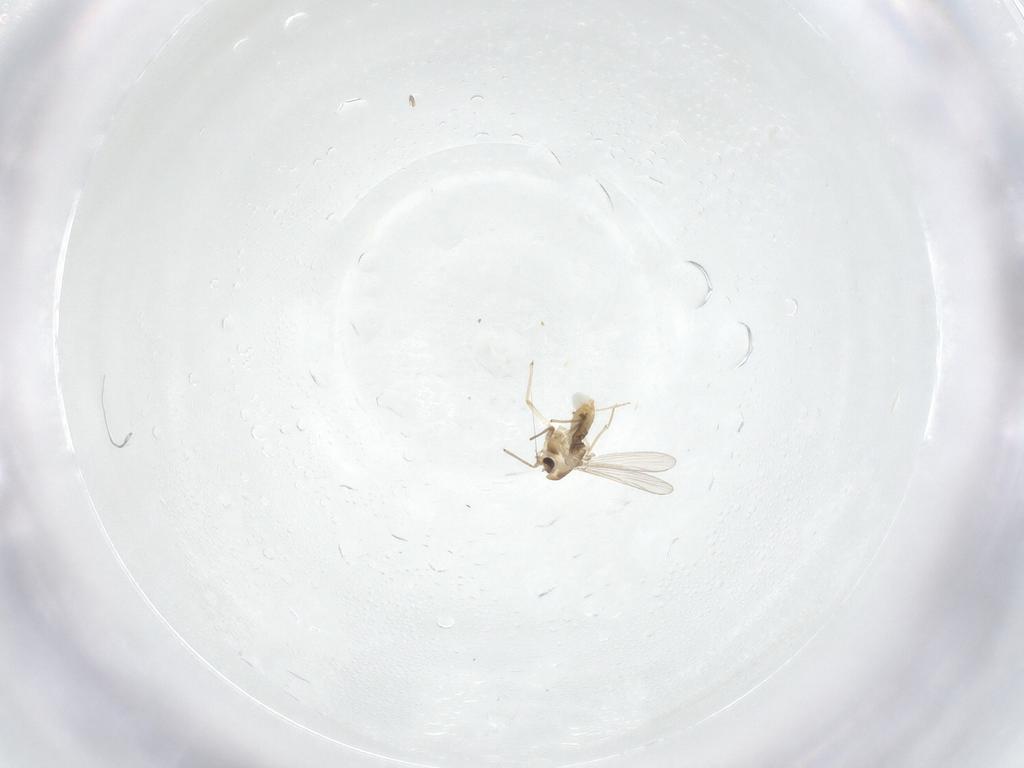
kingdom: Animalia
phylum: Arthropoda
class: Insecta
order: Diptera
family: Chironomidae
